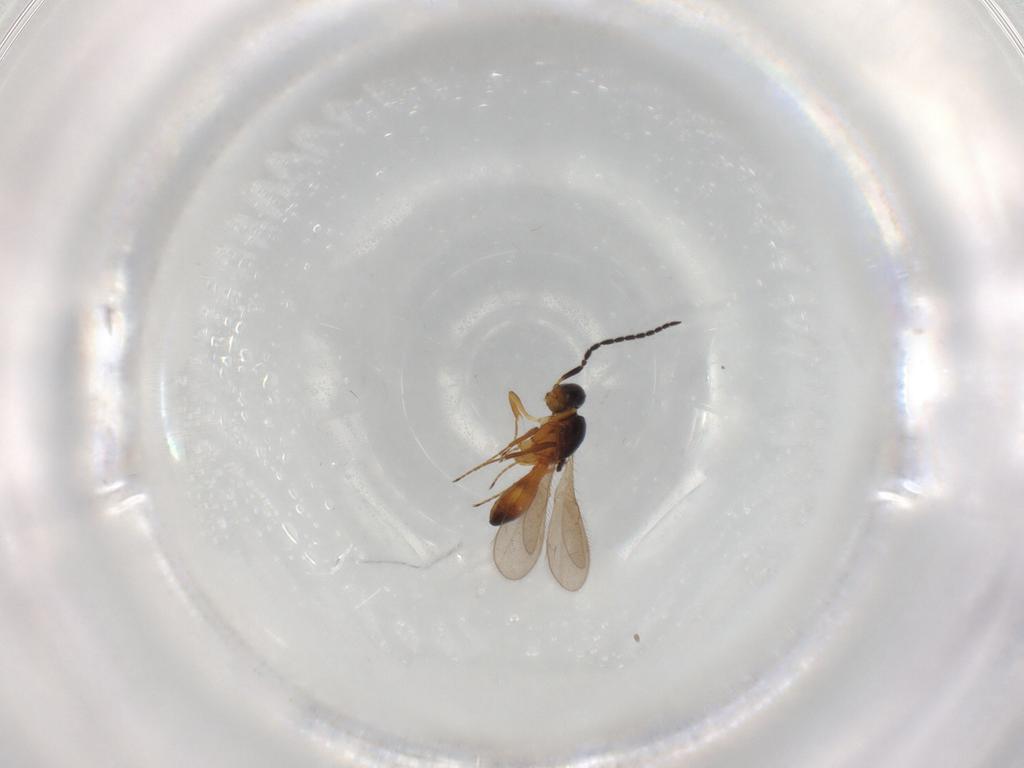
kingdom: Animalia
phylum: Arthropoda
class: Insecta
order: Hymenoptera
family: Scelionidae
